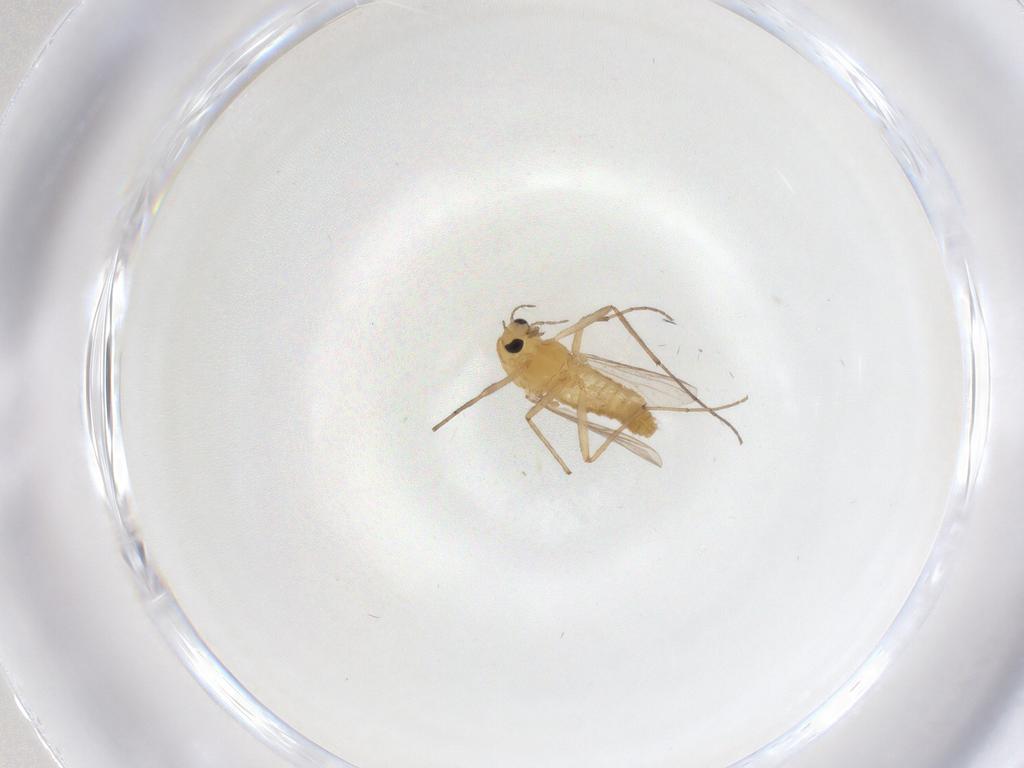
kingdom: Animalia
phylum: Arthropoda
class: Insecta
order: Diptera
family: Chironomidae
